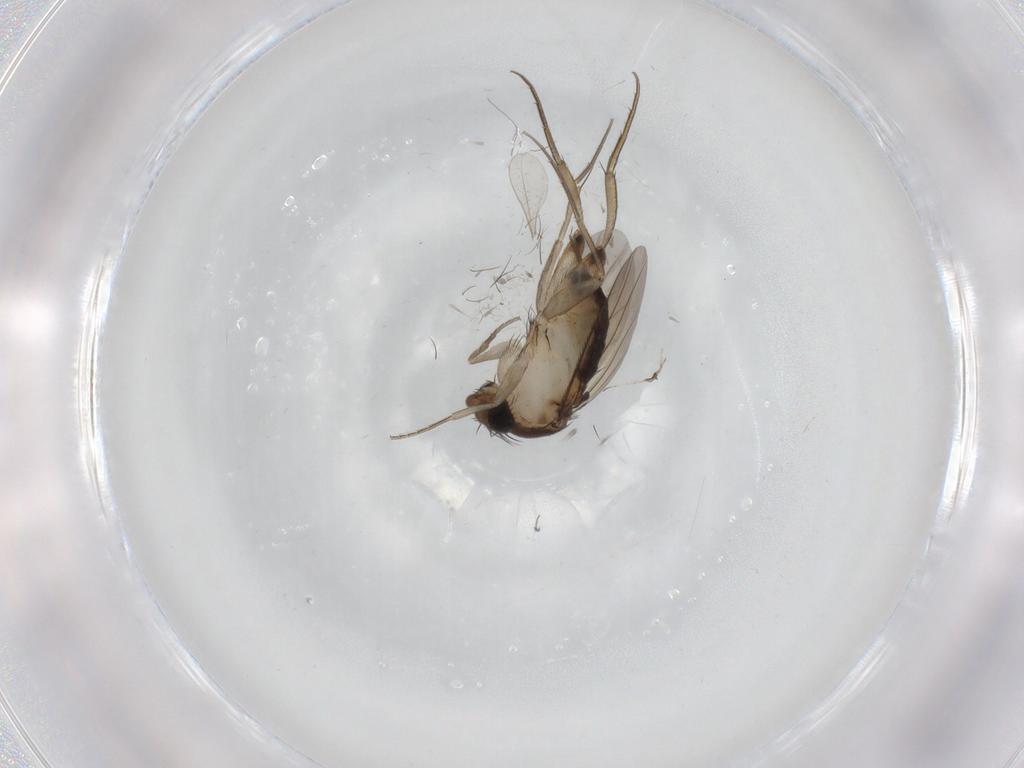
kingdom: Animalia
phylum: Arthropoda
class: Insecta
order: Diptera
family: Phoridae
